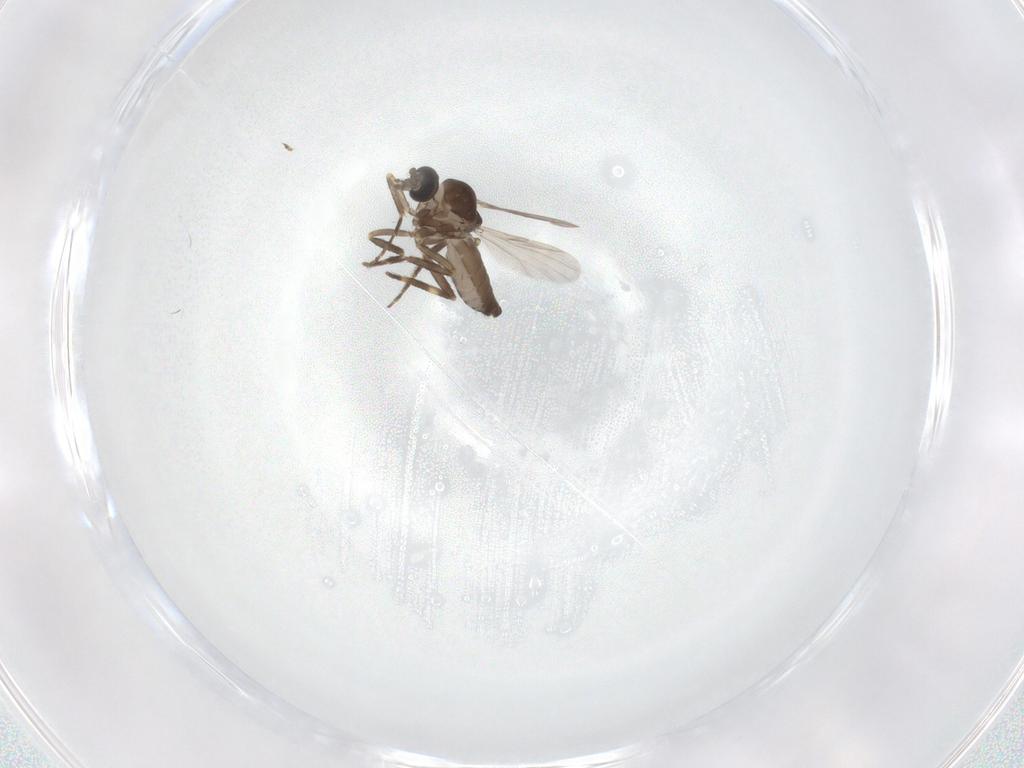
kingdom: Animalia
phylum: Arthropoda
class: Insecta
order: Diptera
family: Ceratopogonidae
